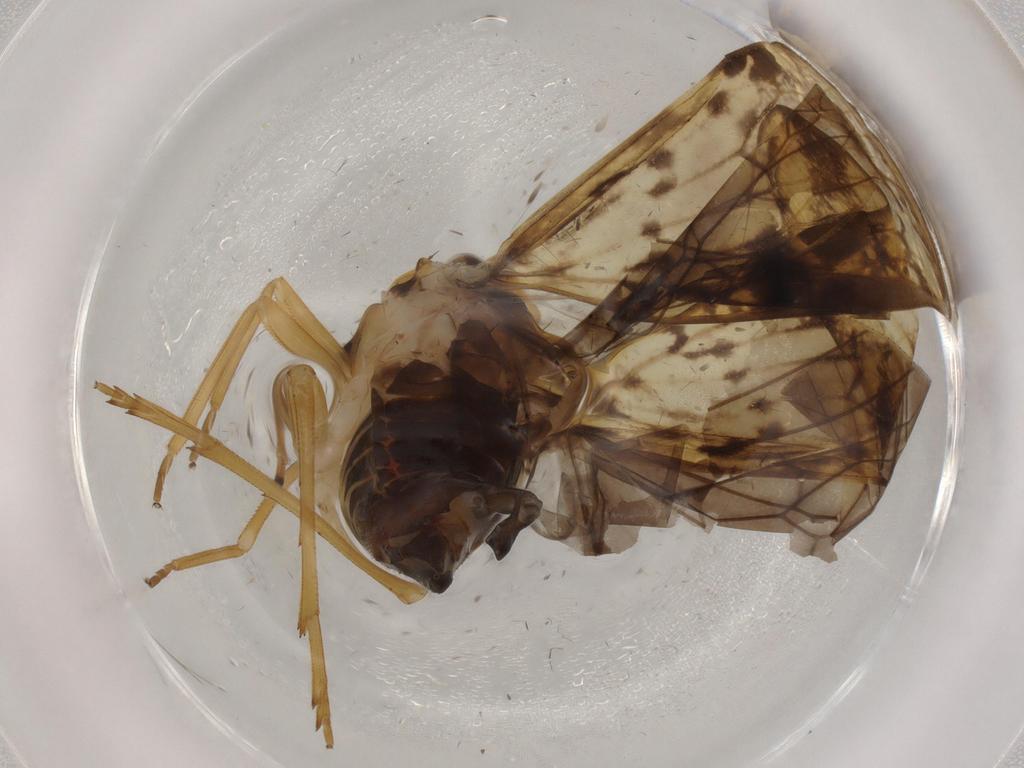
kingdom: Animalia
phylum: Arthropoda
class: Insecta
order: Hemiptera
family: Cixiidae
